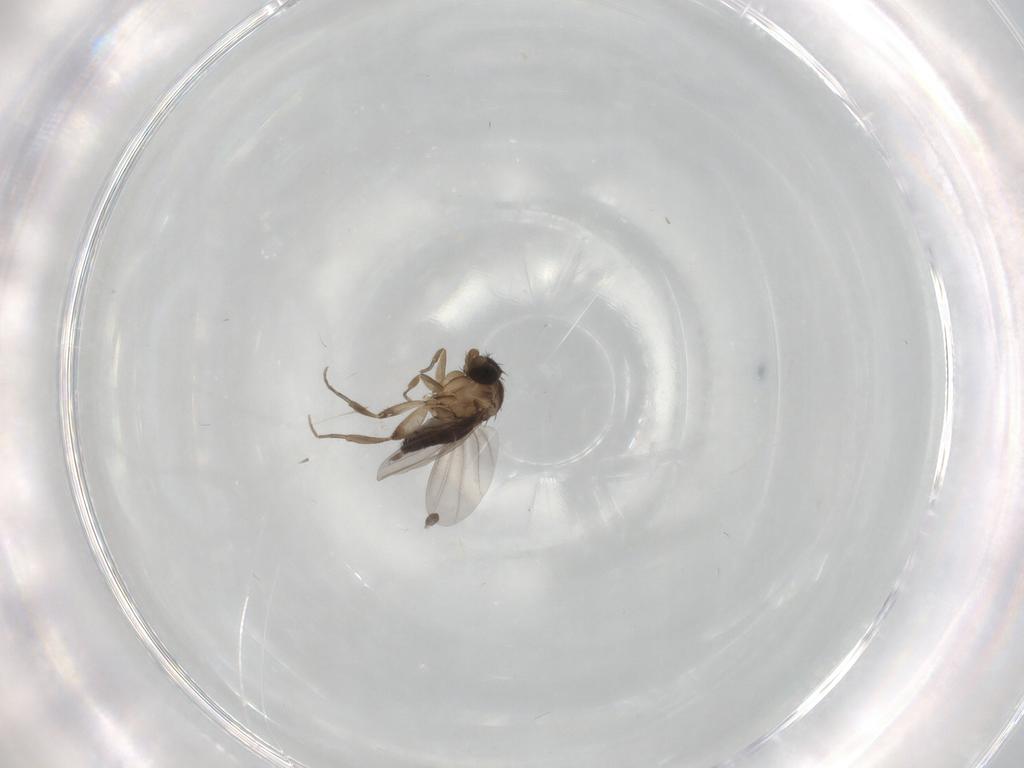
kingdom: Animalia
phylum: Arthropoda
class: Insecta
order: Diptera
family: Phoridae
